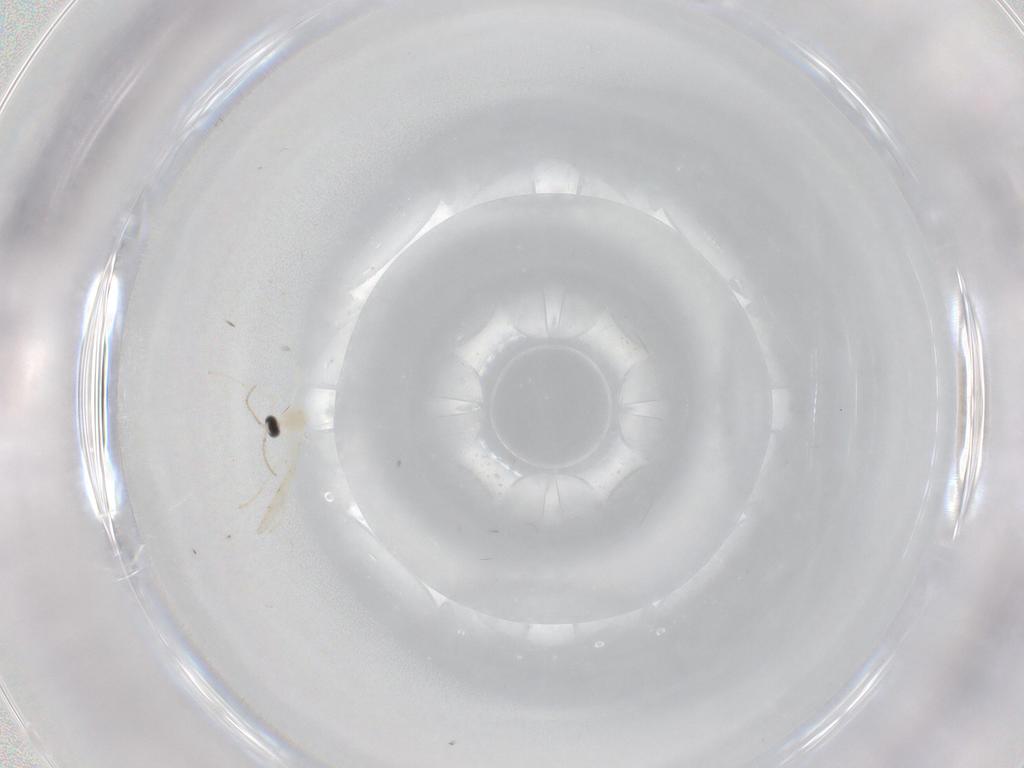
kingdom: Animalia
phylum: Arthropoda
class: Insecta
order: Diptera
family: Cecidomyiidae
